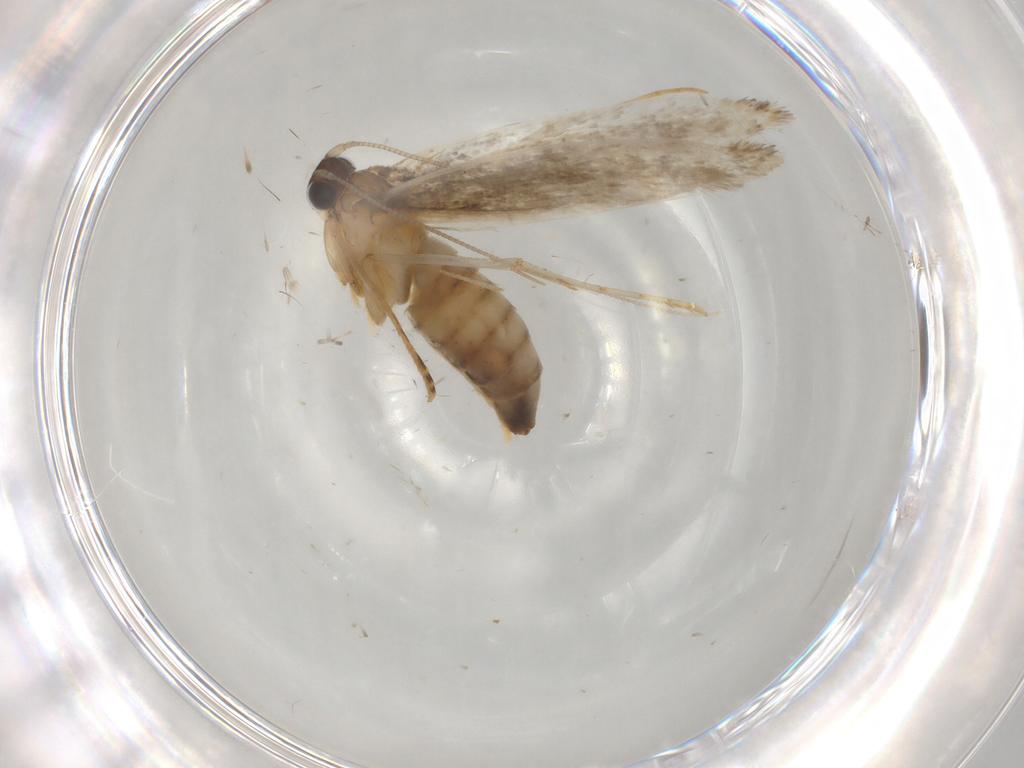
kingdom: Animalia
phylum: Arthropoda
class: Insecta
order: Lepidoptera
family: Tineidae
